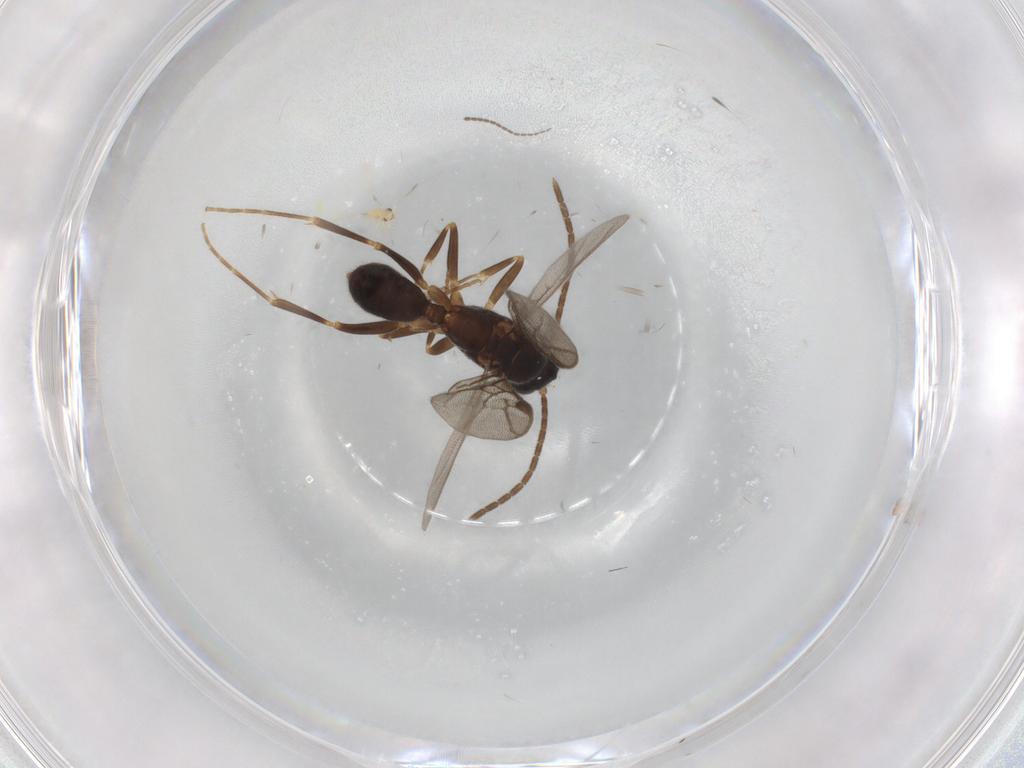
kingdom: Animalia
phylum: Arthropoda
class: Insecta
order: Hymenoptera
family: Formicidae
